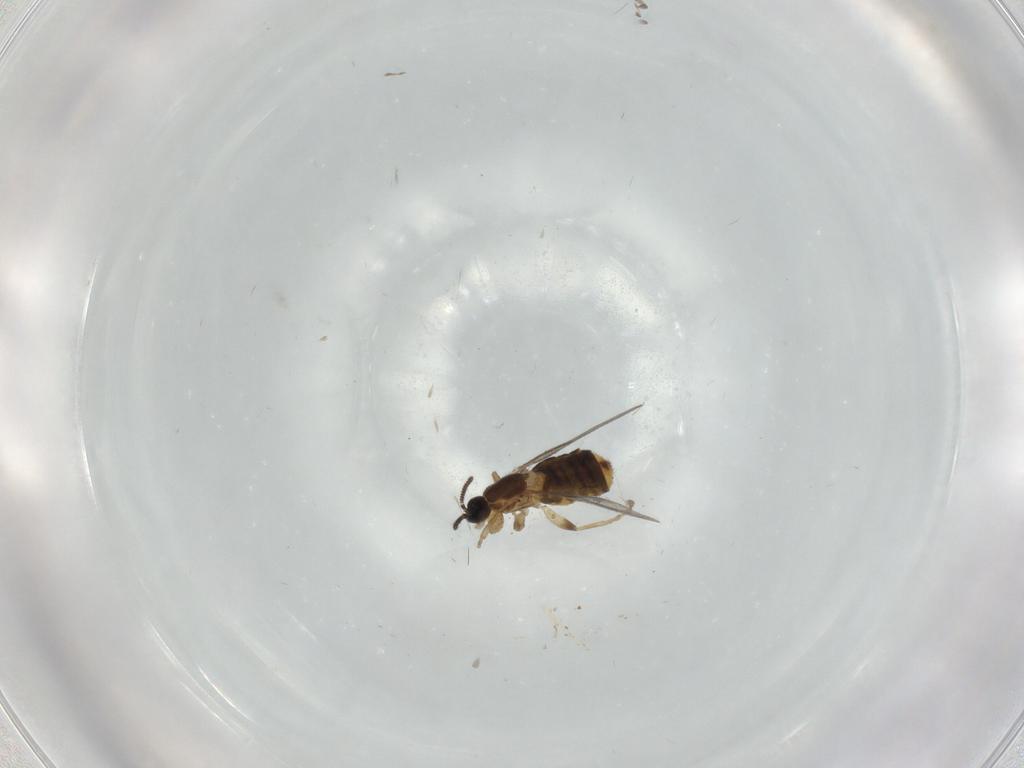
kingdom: Animalia
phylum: Arthropoda
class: Insecta
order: Diptera
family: Scatopsidae
